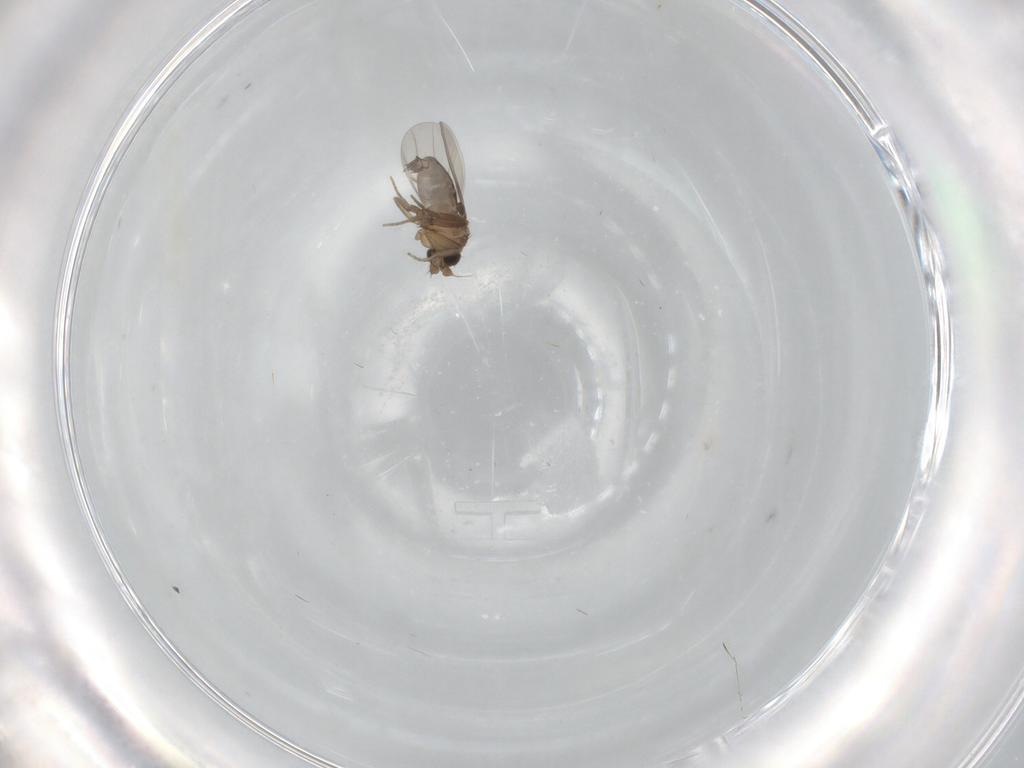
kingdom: Animalia
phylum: Arthropoda
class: Insecta
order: Diptera
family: Phoridae
